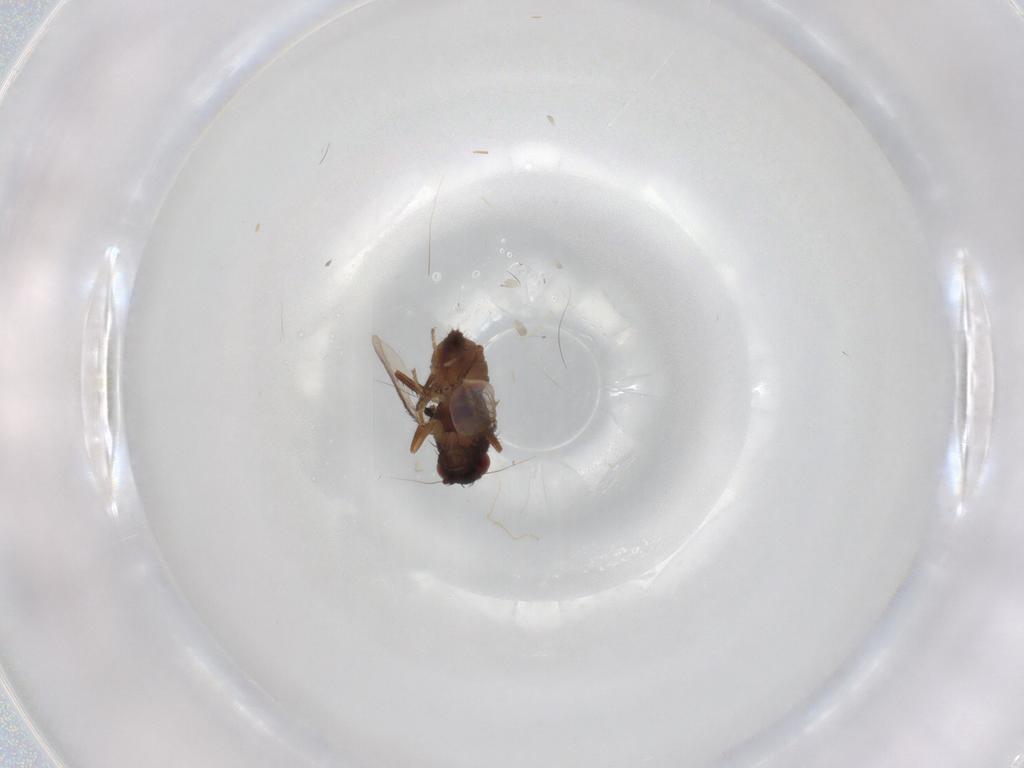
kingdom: Animalia
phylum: Arthropoda
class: Insecta
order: Diptera
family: Sphaeroceridae
